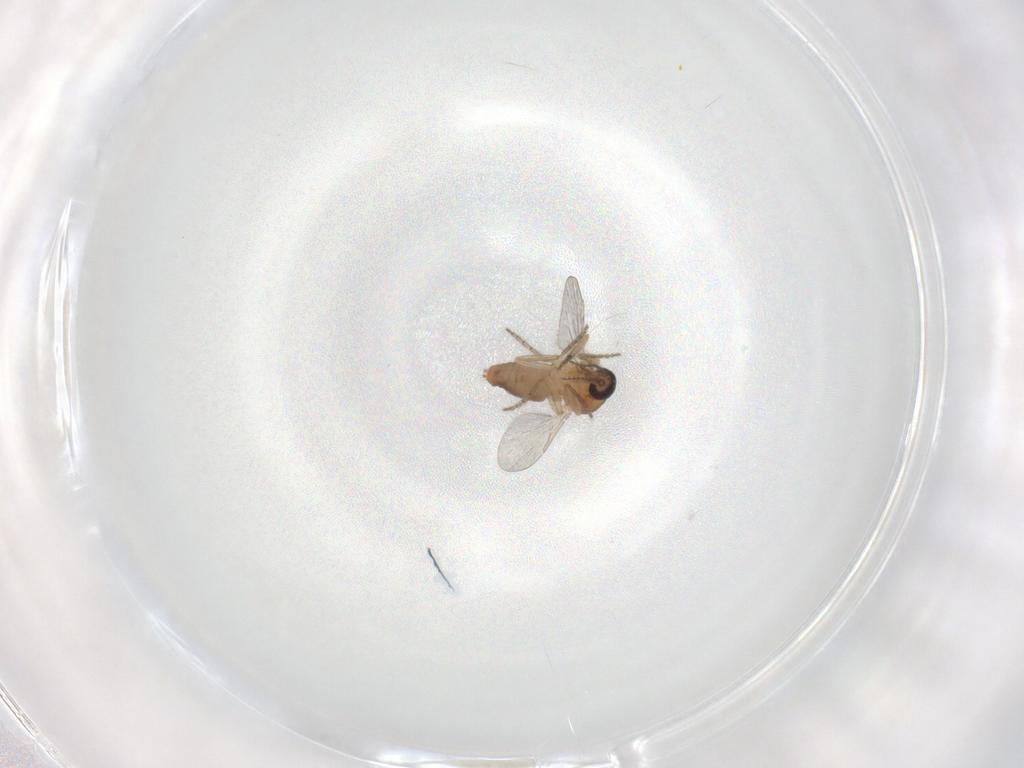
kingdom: Animalia
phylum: Arthropoda
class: Insecta
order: Diptera
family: Ceratopogonidae
